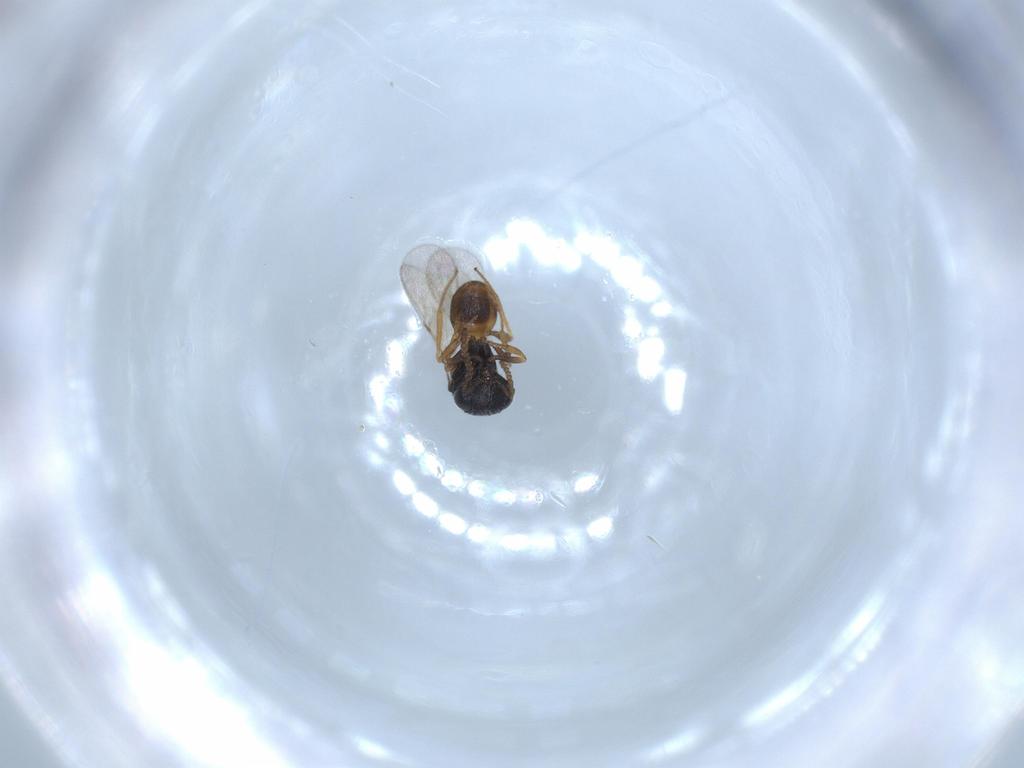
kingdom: Animalia
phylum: Arthropoda
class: Insecta
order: Hymenoptera
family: Scelionidae
